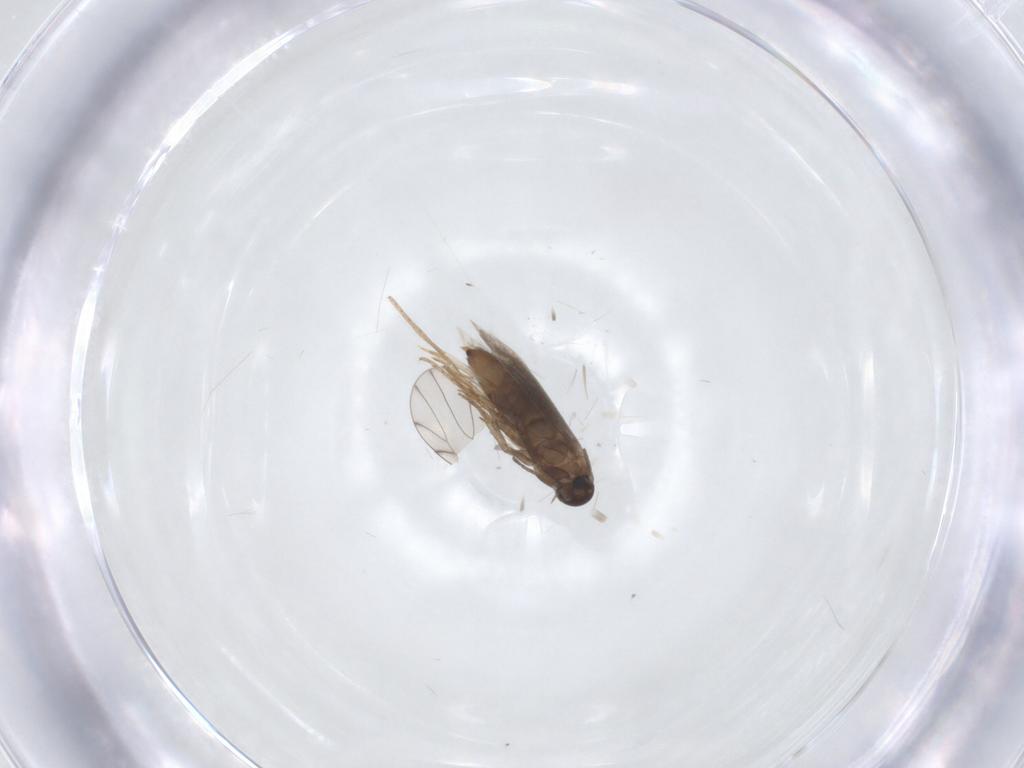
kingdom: Animalia
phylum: Arthropoda
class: Insecta
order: Lepidoptera
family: Heliozelidae
